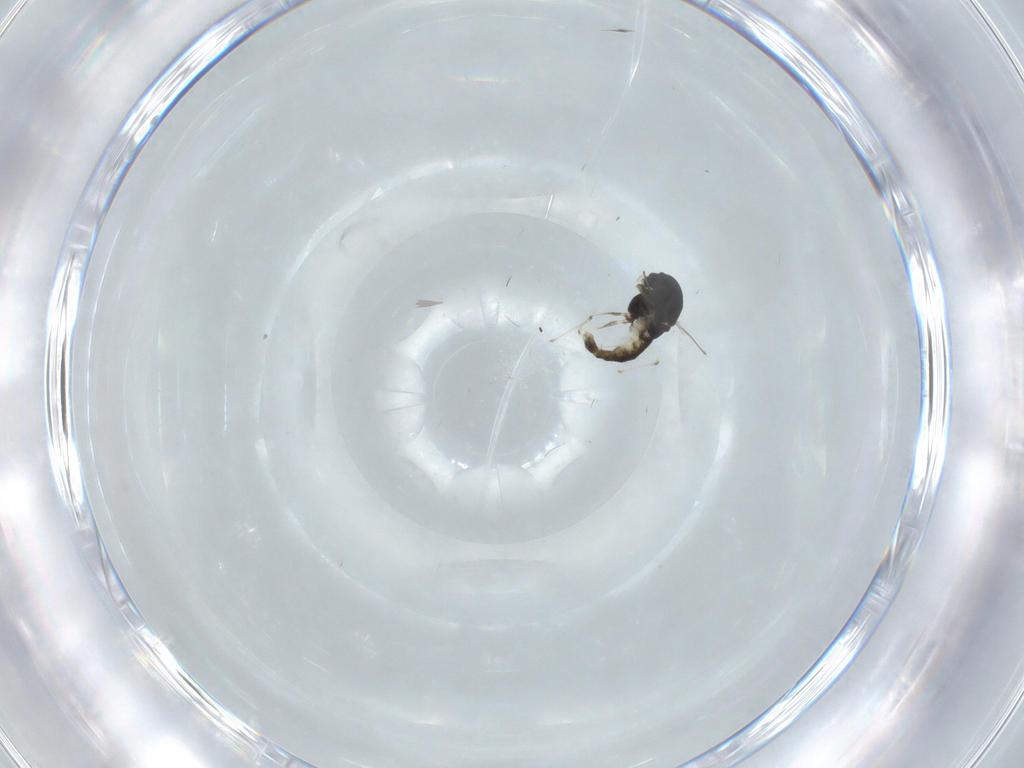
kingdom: Animalia
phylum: Arthropoda
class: Insecta
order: Diptera
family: Chironomidae
